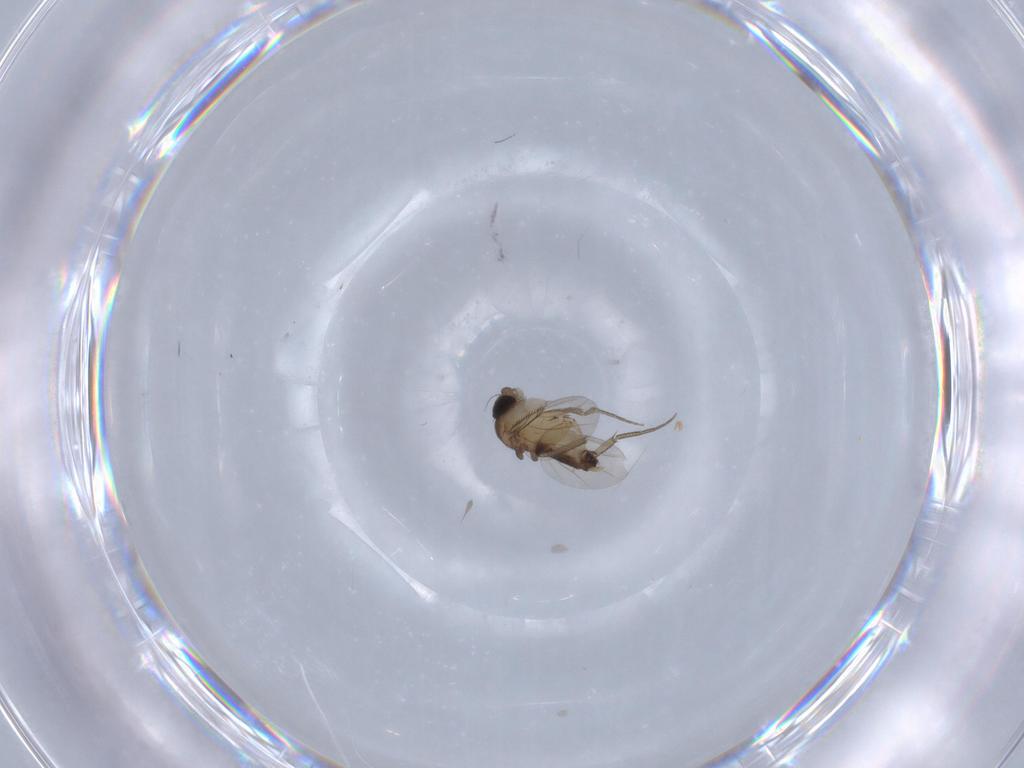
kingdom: Animalia
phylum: Arthropoda
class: Insecta
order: Diptera
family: Phoridae
